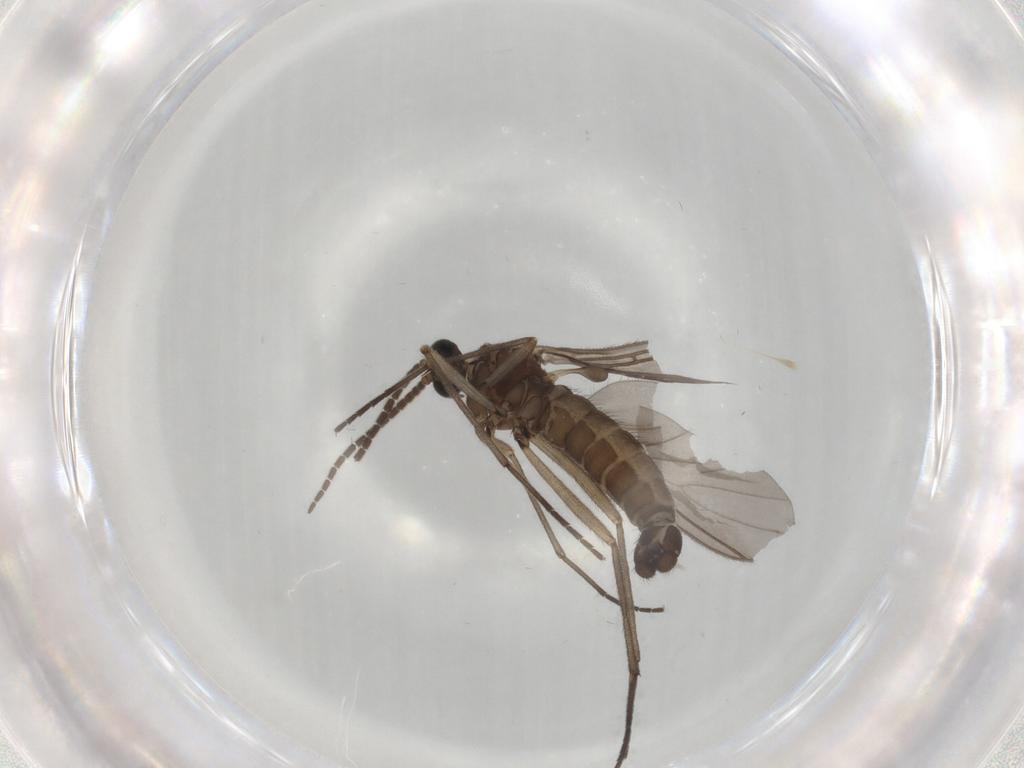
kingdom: Animalia
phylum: Arthropoda
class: Insecta
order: Diptera
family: Sciaridae
